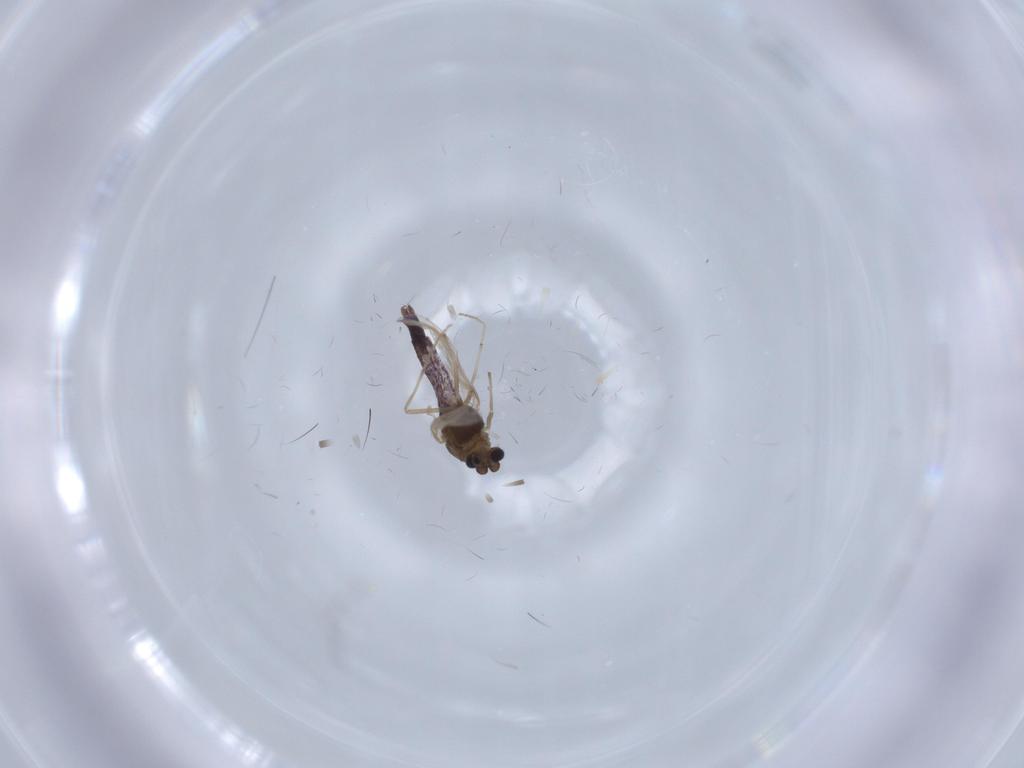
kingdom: Animalia
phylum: Arthropoda
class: Insecta
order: Diptera
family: Chironomidae
